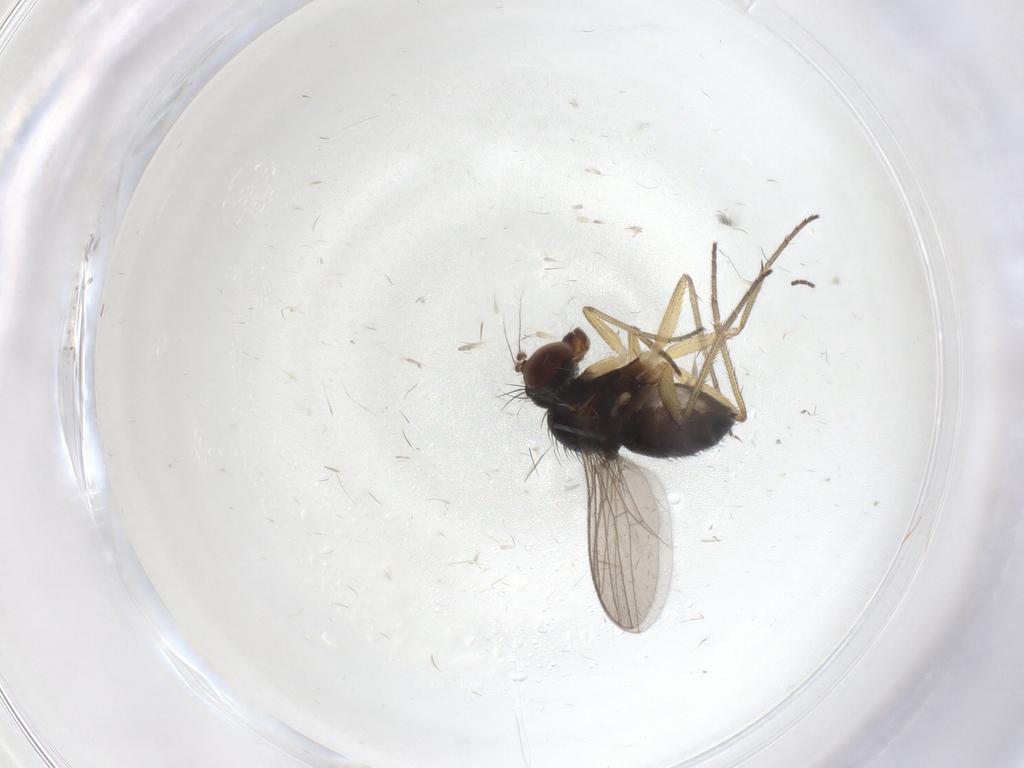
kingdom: Animalia
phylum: Arthropoda
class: Insecta
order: Diptera
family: Dolichopodidae
